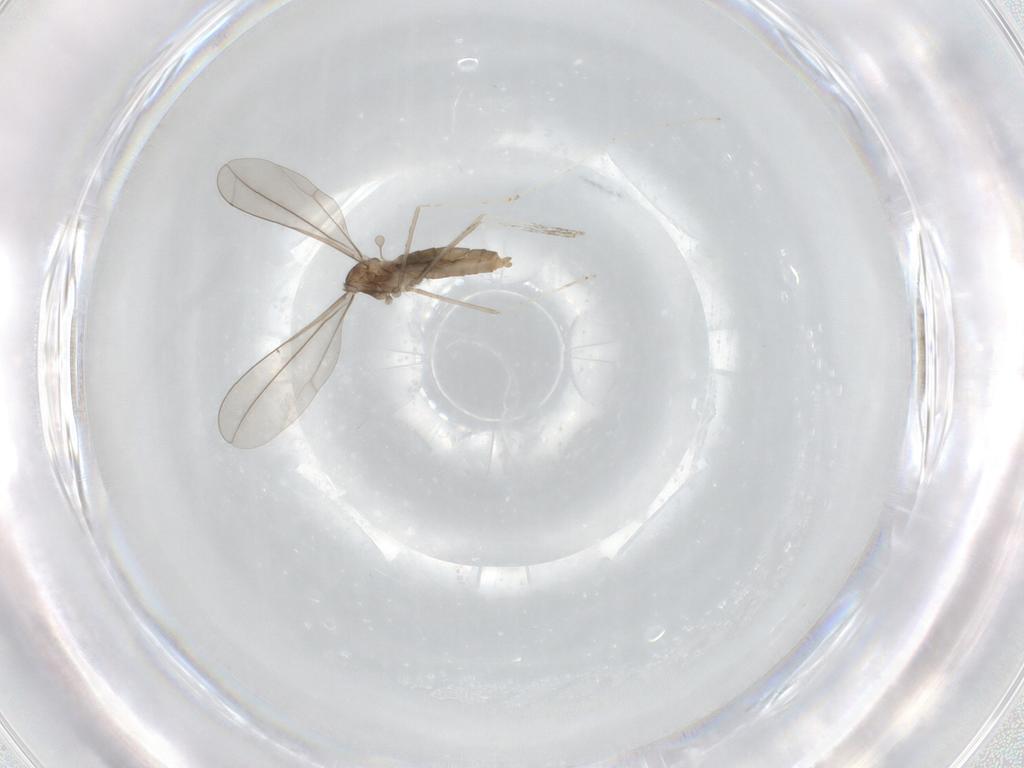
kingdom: Animalia
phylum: Arthropoda
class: Insecta
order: Diptera
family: Cecidomyiidae
